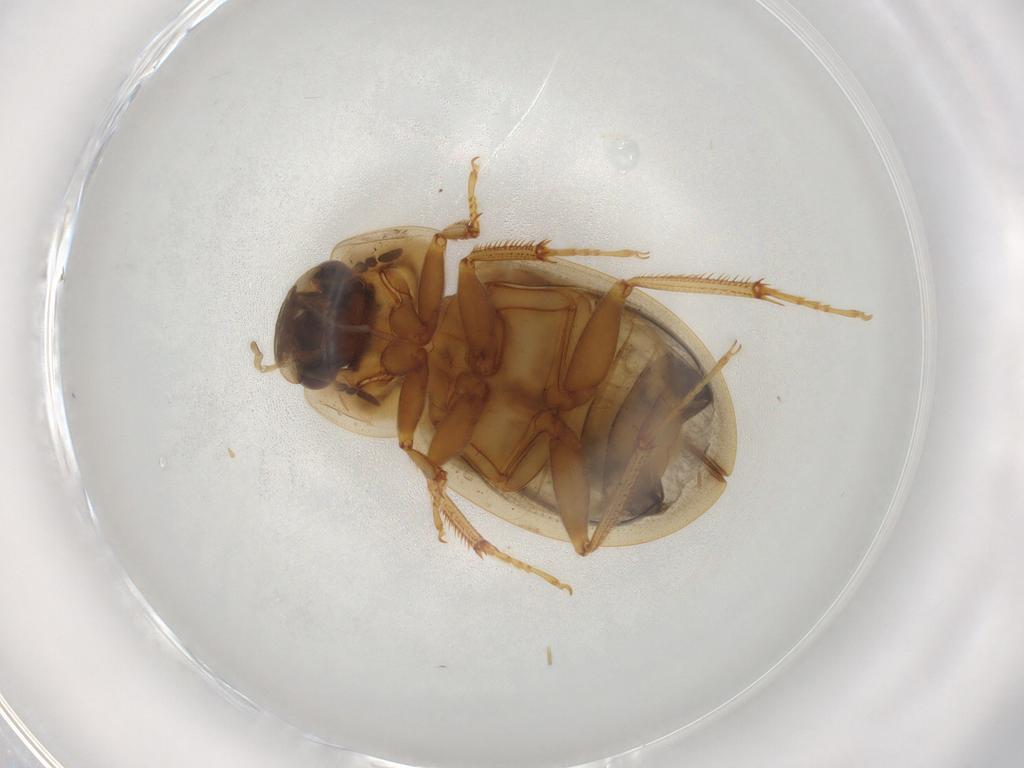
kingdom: Animalia
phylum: Arthropoda
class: Insecta
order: Coleoptera
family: Hydrophilidae
